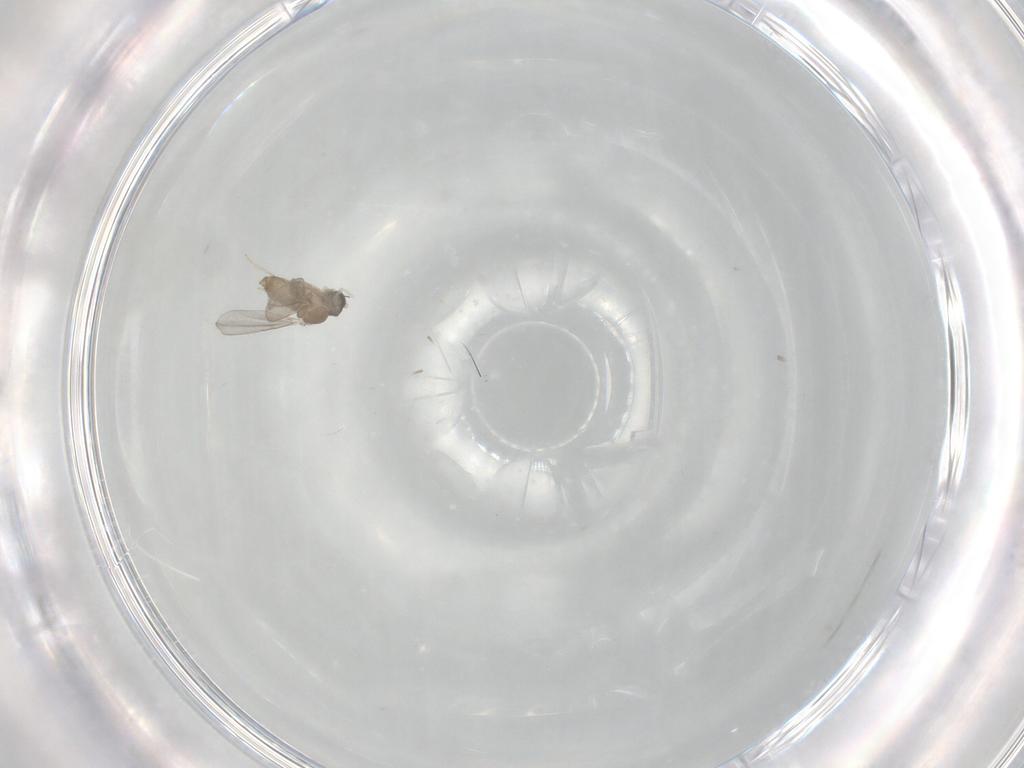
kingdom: Animalia
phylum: Arthropoda
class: Insecta
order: Diptera
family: Cecidomyiidae
